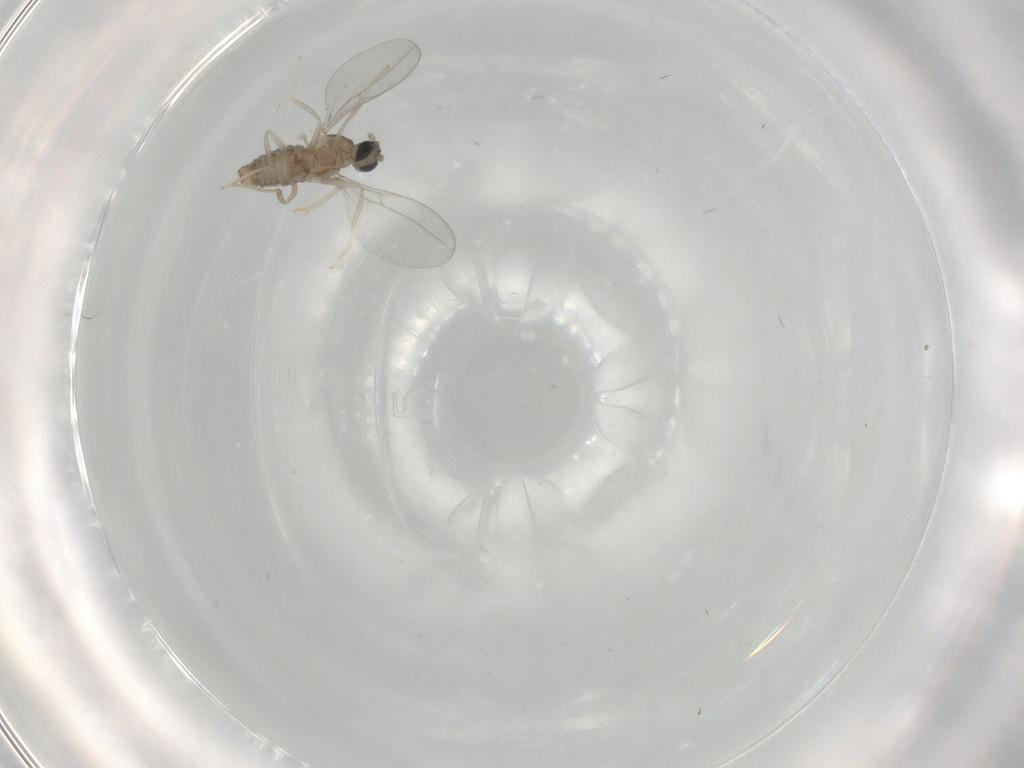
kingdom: Animalia
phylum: Arthropoda
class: Insecta
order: Diptera
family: Cecidomyiidae
